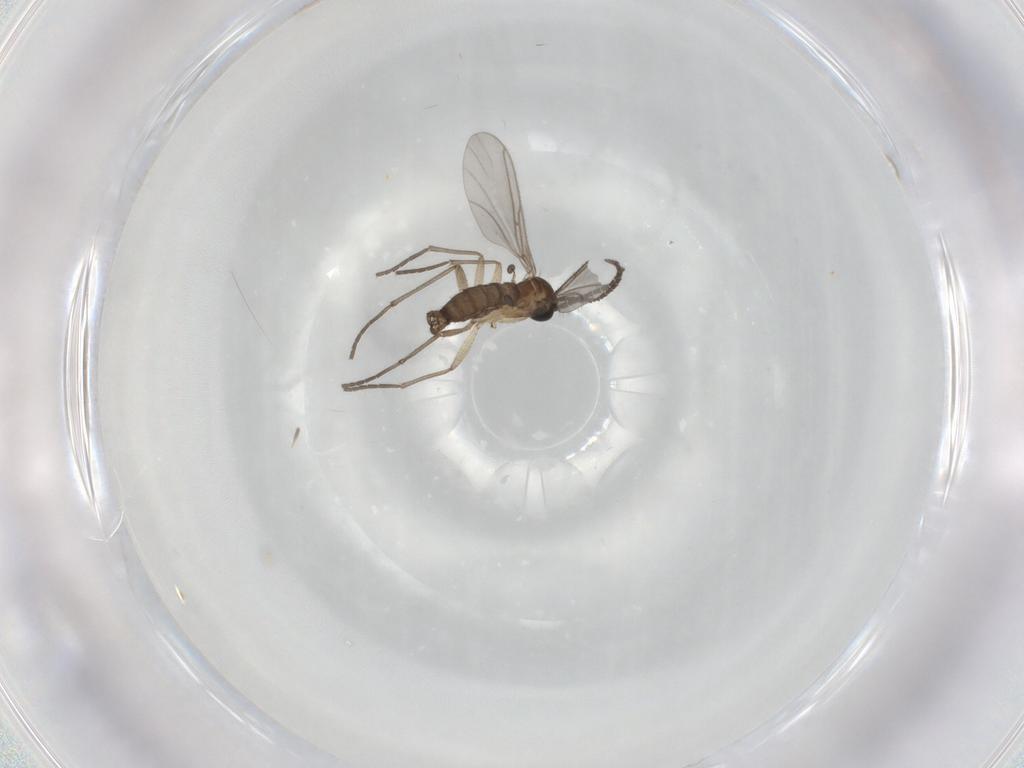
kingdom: Animalia
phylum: Arthropoda
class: Insecta
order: Diptera
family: Sciaridae
